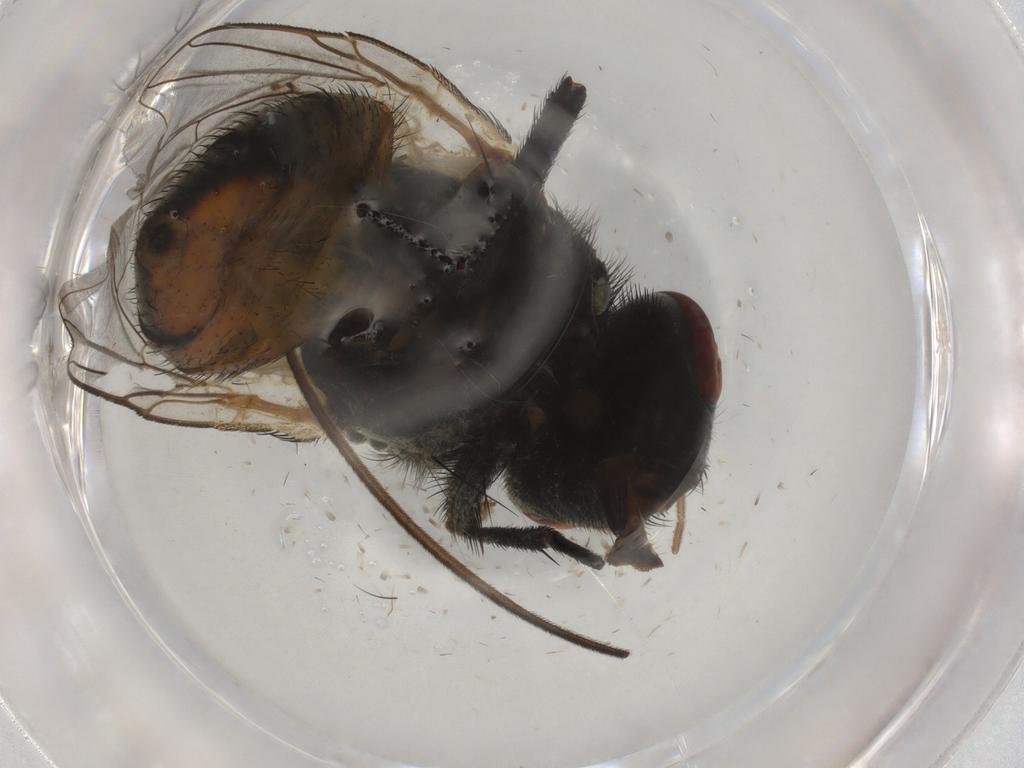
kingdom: Animalia
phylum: Arthropoda
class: Insecta
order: Diptera
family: Muscidae
